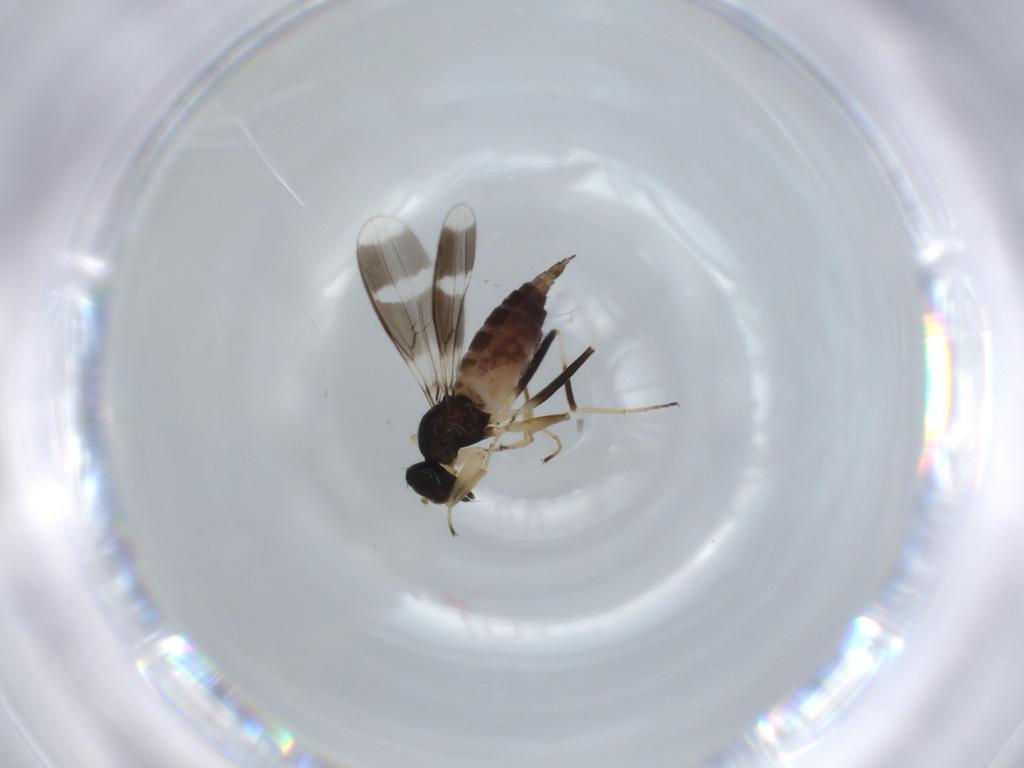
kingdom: Animalia
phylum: Arthropoda
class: Insecta
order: Diptera
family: Hybotidae
